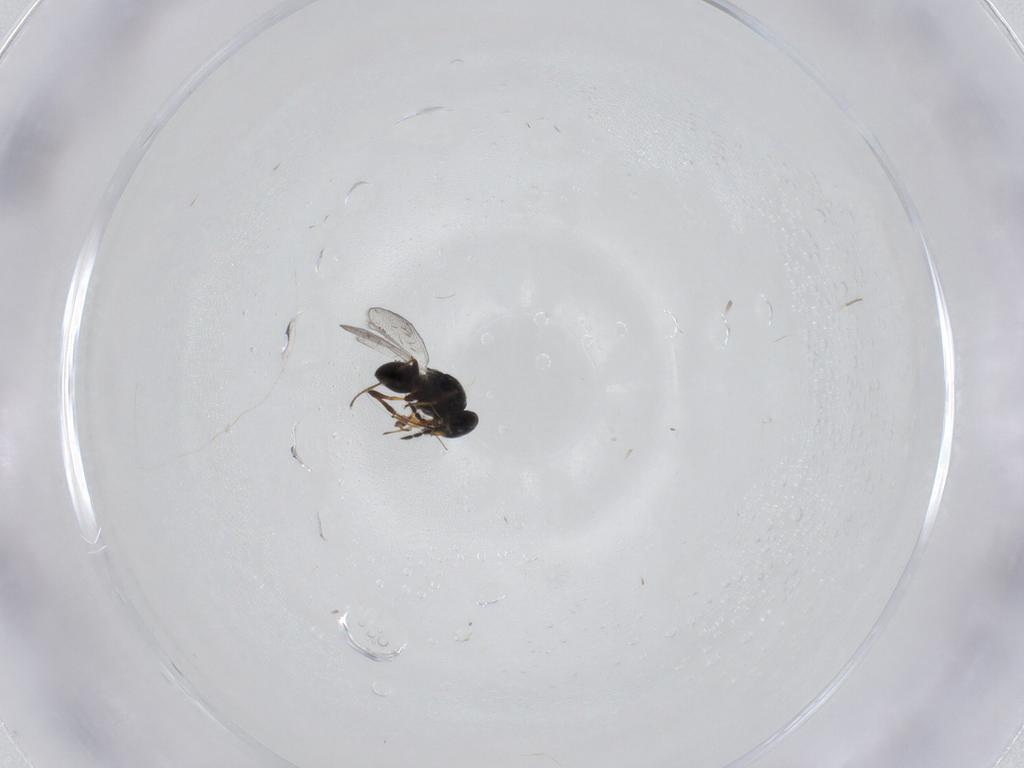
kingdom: Animalia
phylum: Arthropoda
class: Insecta
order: Hymenoptera
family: Platygastridae
